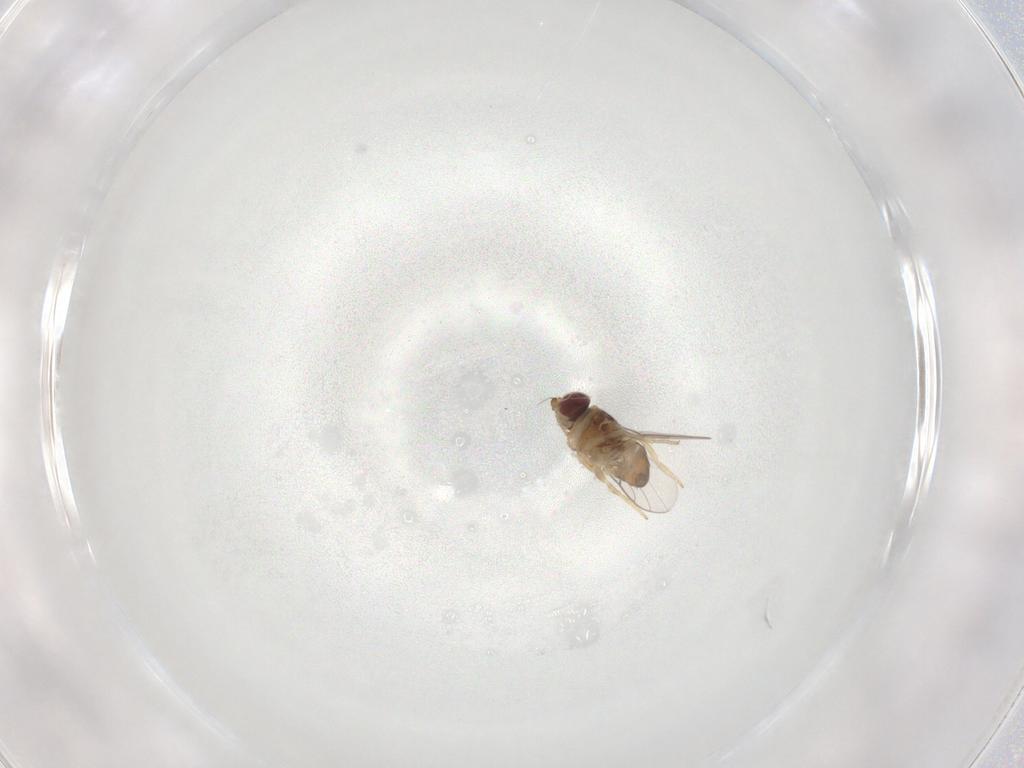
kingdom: Animalia
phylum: Arthropoda
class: Insecta
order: Diptera
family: Chloropidae
